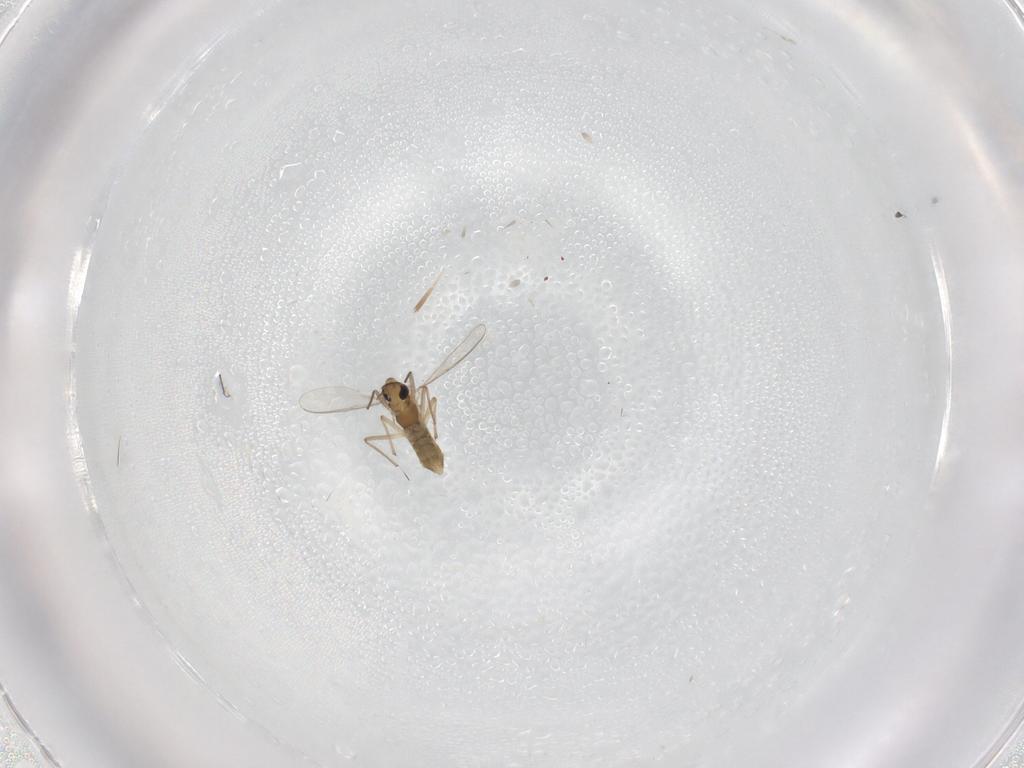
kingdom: Animalia
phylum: Arthropoda
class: Insecta
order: Diptera
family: Chironomidae
